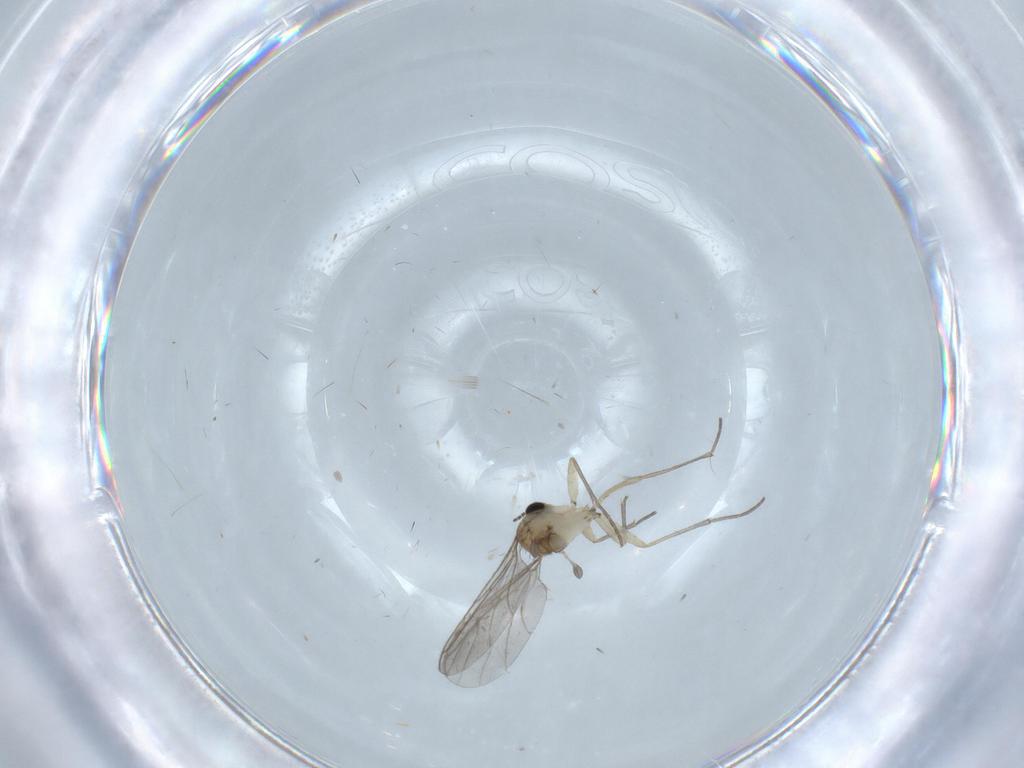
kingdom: Animalia
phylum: Arthropoda
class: Insecta
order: Diptera
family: Sciaridae
